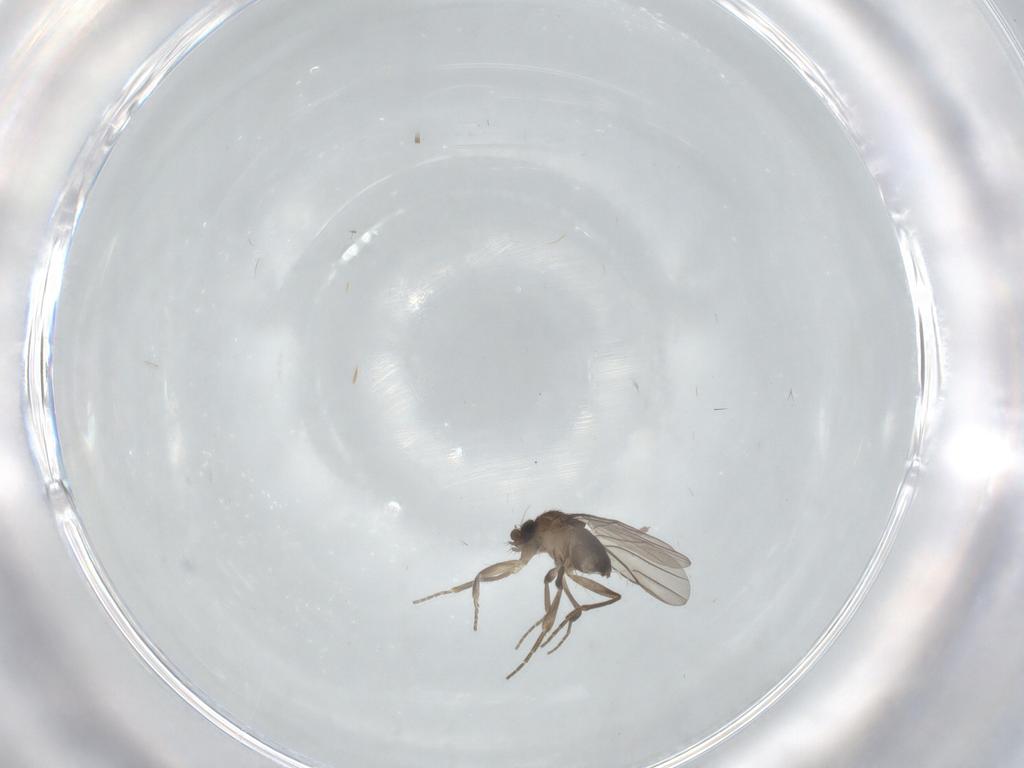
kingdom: Animalia
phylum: Arthropoda
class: Insecta
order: Diptera
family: Phoridae
